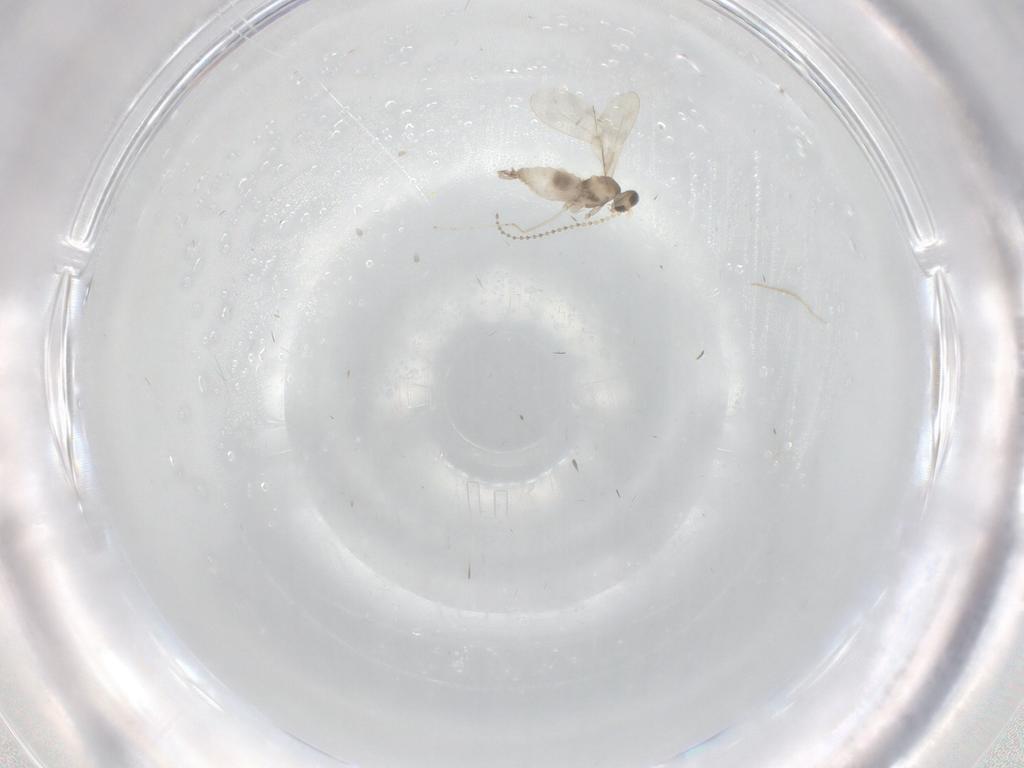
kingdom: Animalia
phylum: Arthropoda
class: Insecta
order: Diptera
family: Cecidomyiidae
